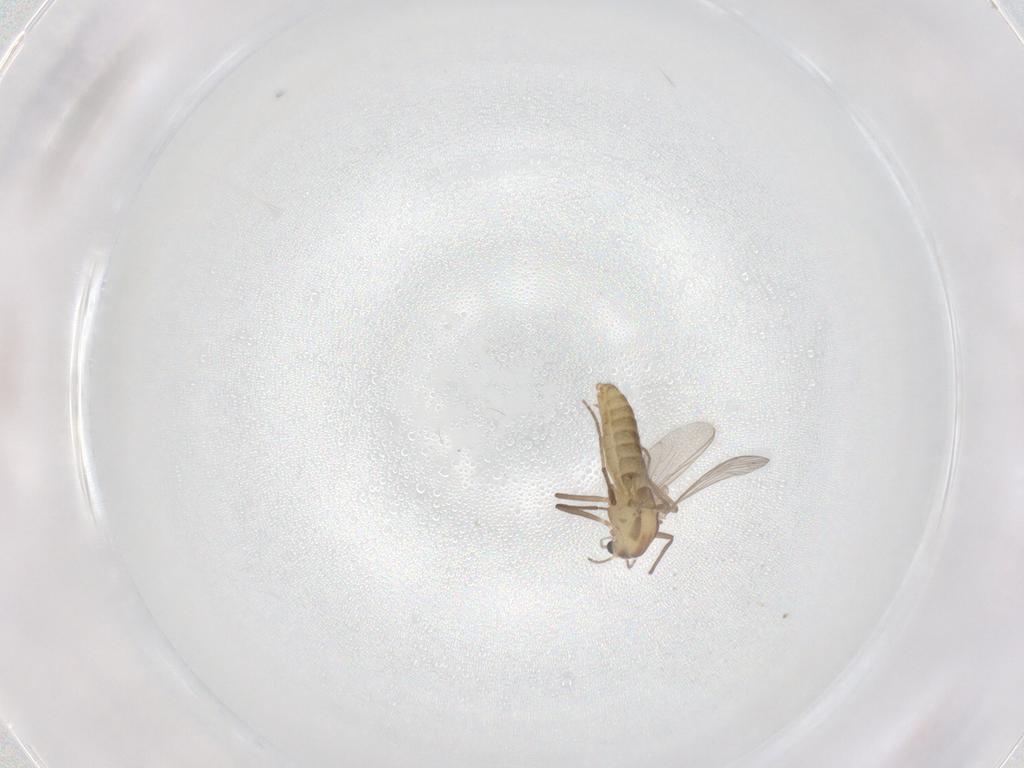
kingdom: Animalia
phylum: Arthropoda
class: Insecta
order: Diptera
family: Chironomidae
